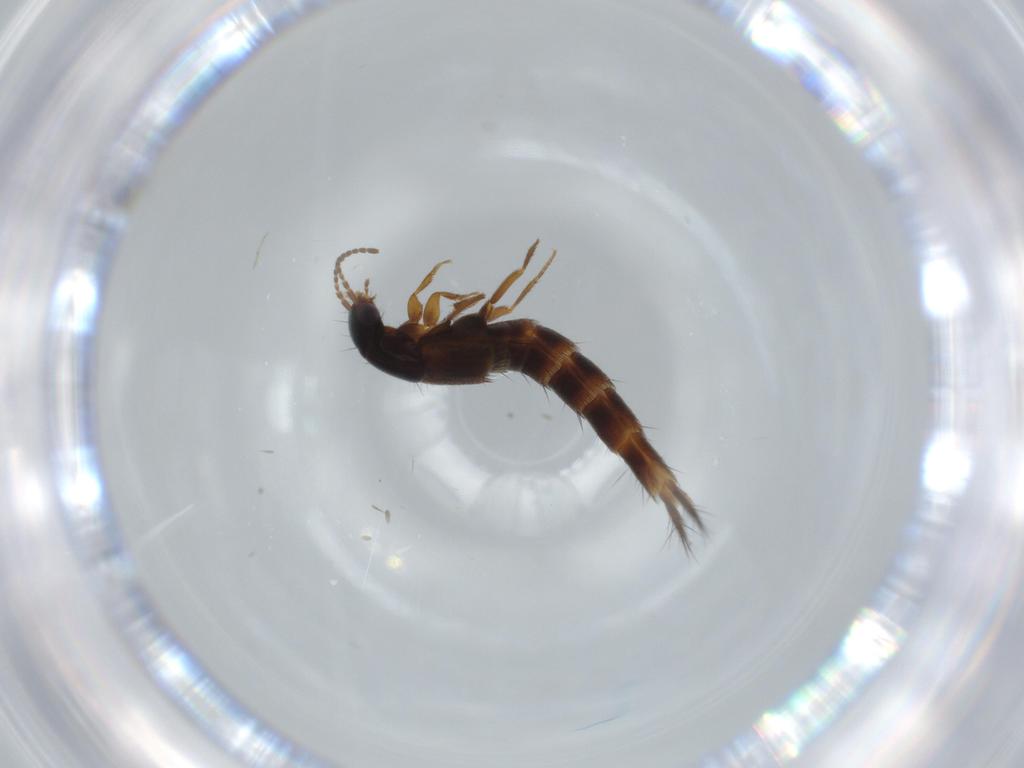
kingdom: Animalia
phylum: Arthropoda
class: Insecta
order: Coleoptera
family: Staphylinidae
